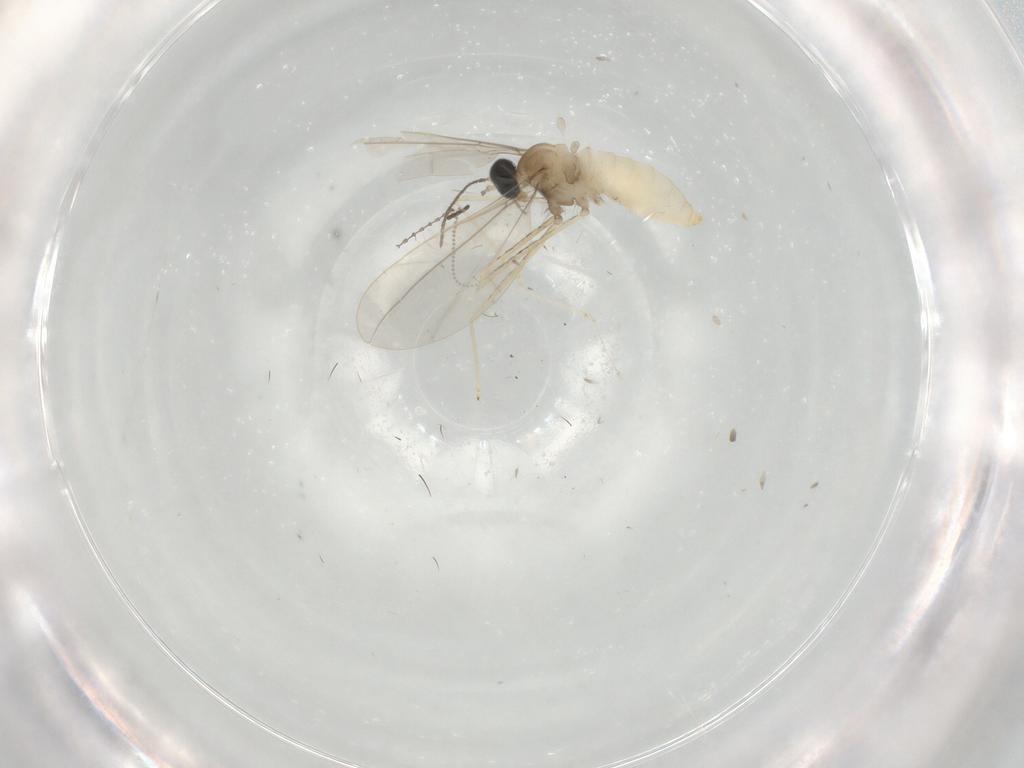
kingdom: Animalia
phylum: Arthropoda
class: Insecta
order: Diptera
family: Cecidomyiidae
